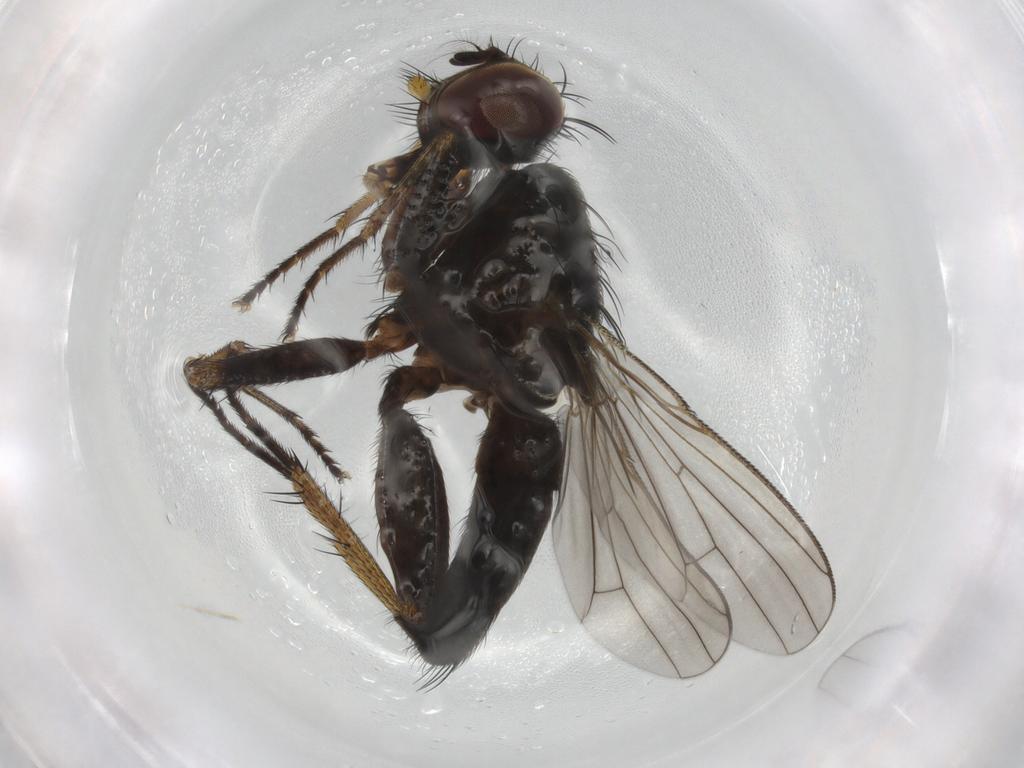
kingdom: Animalia
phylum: Arthropoda
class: Insecta
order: Diptera
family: Muscidae
